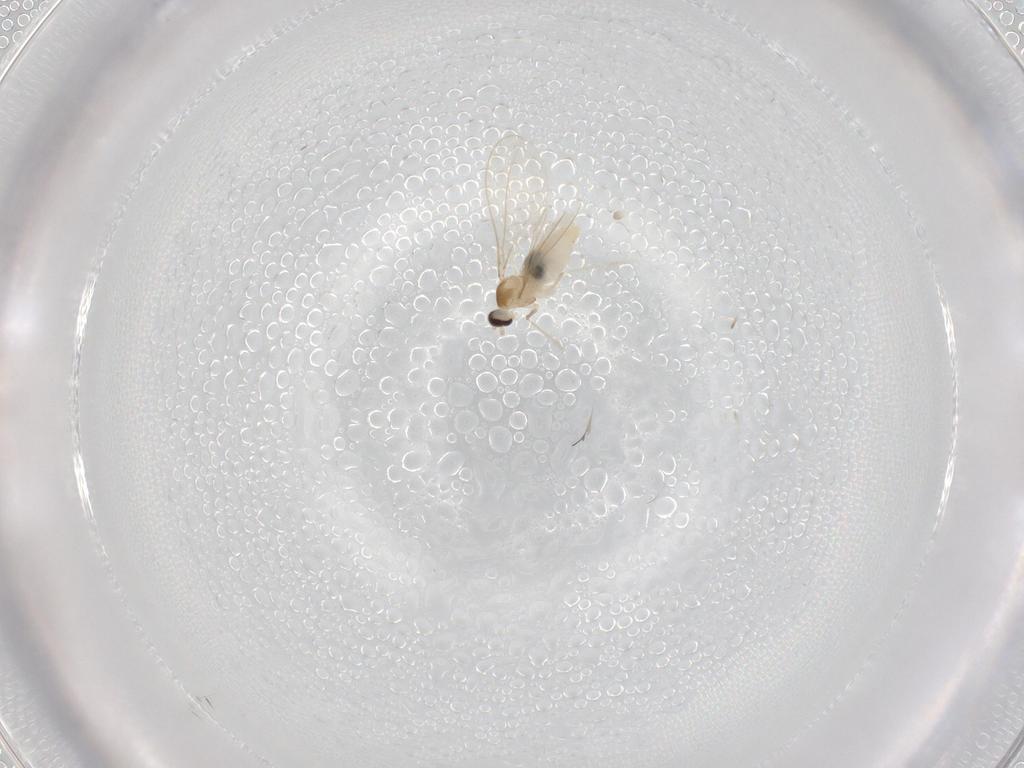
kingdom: Animalia
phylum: Arthropoda
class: Insecta
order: Diptera
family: Cecidomyiidae
